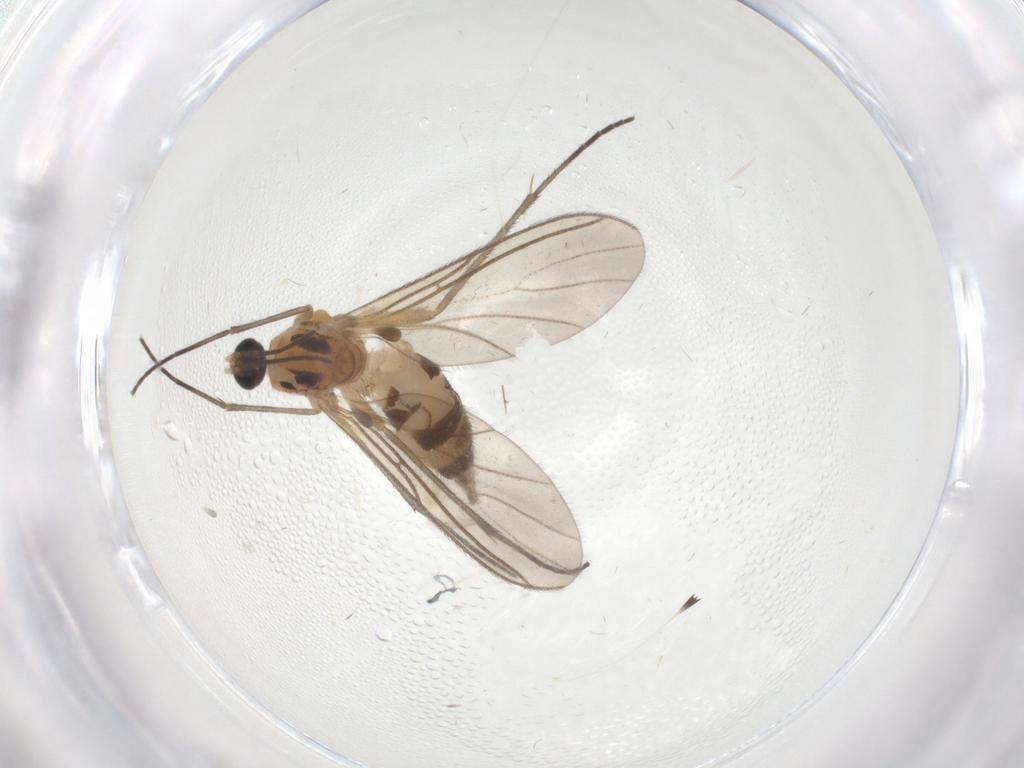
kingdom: Animalia
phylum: Arthropoda
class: Insecta
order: Diptera
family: Psychodidae
